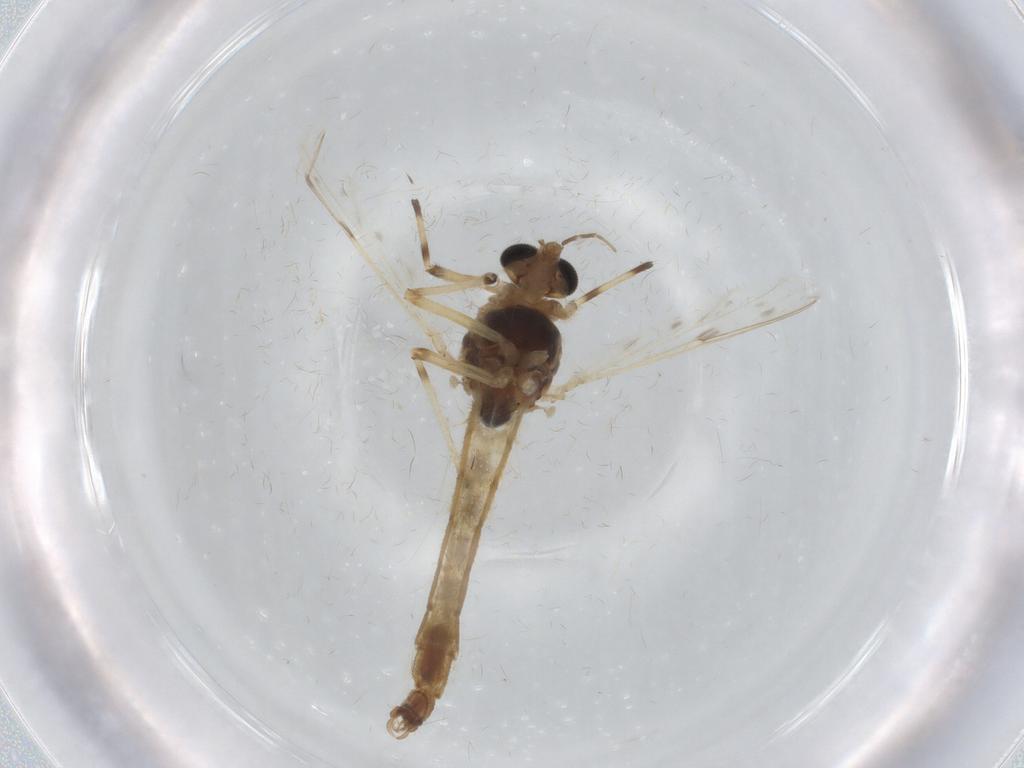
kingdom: Animalia
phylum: Arthropoda
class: Insecta
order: Diptera
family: Chironomidae
